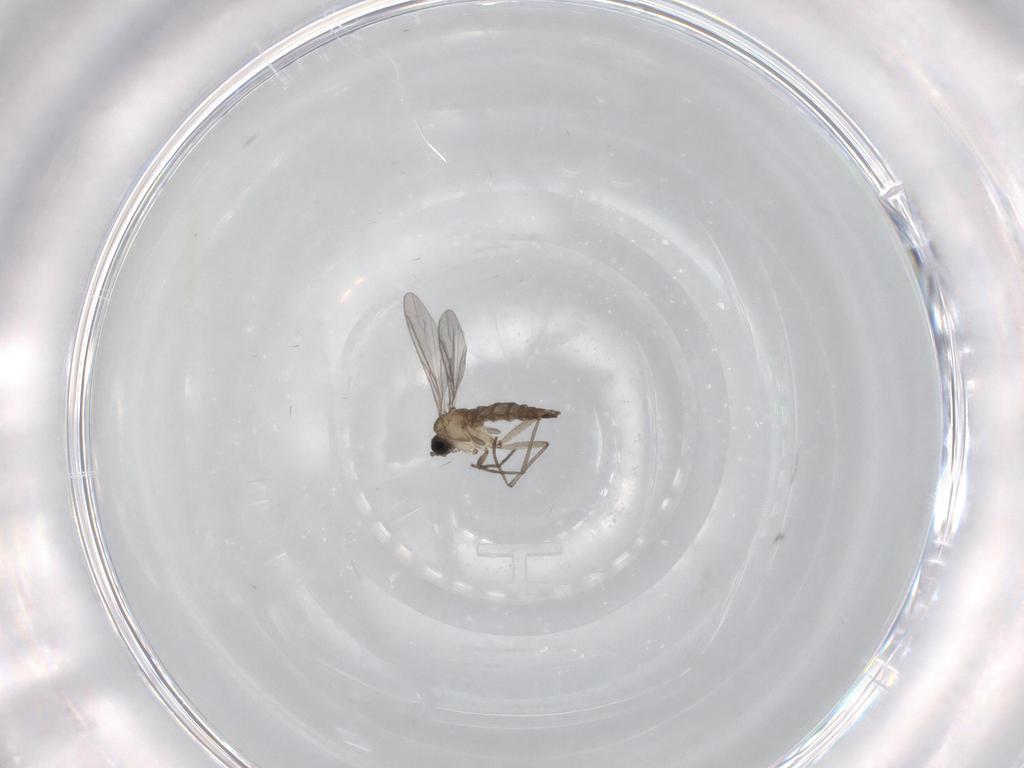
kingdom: Animalia
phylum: Arthropoda
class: Insecta
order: Diptera
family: Sciaridae
